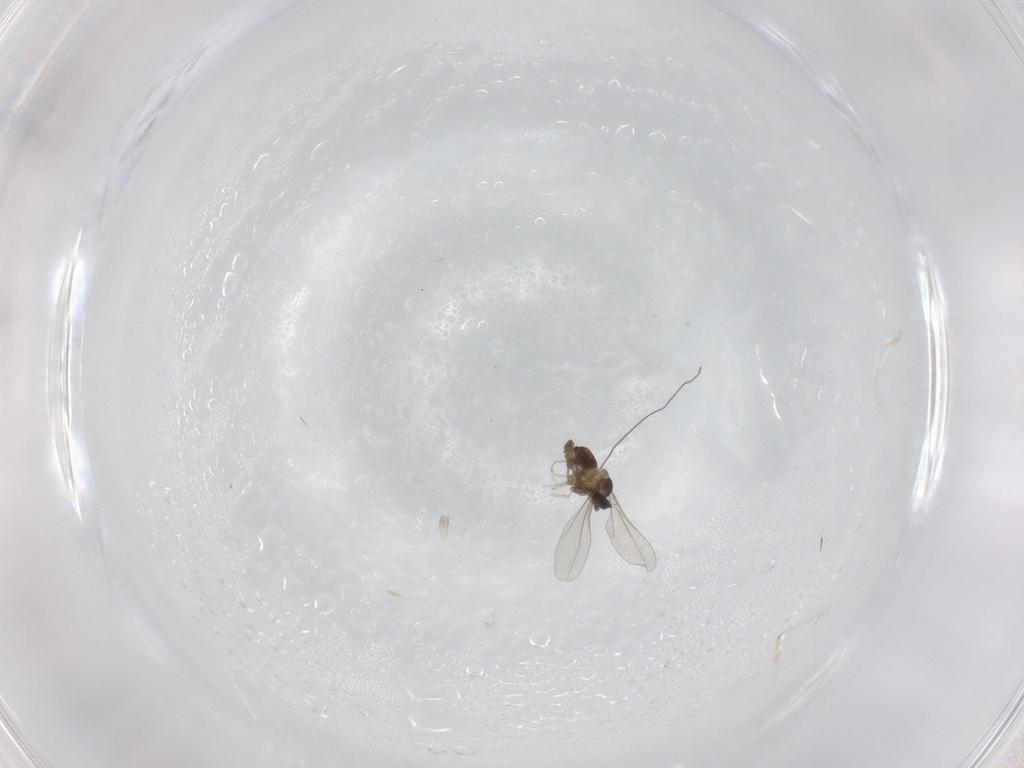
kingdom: Animalia
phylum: Arthropoda
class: Insecta
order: Diptera
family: Cecidomyiidae
